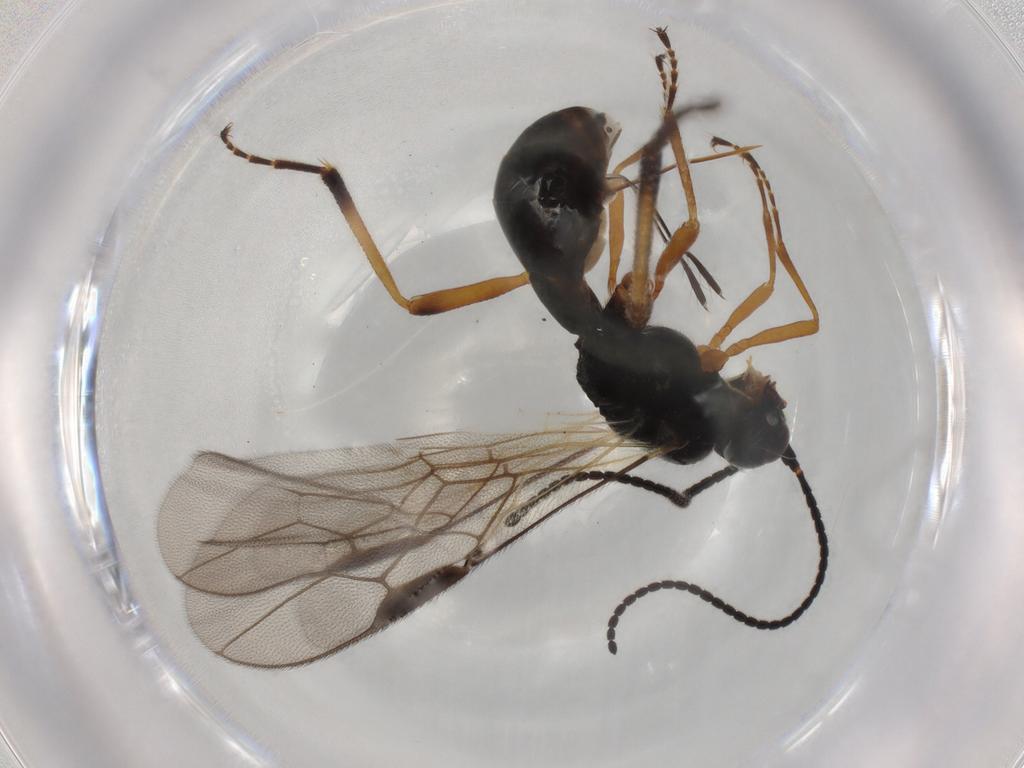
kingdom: Animalia
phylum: Arthropoda
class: Insecta
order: Hymenoptera
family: Braconidae
